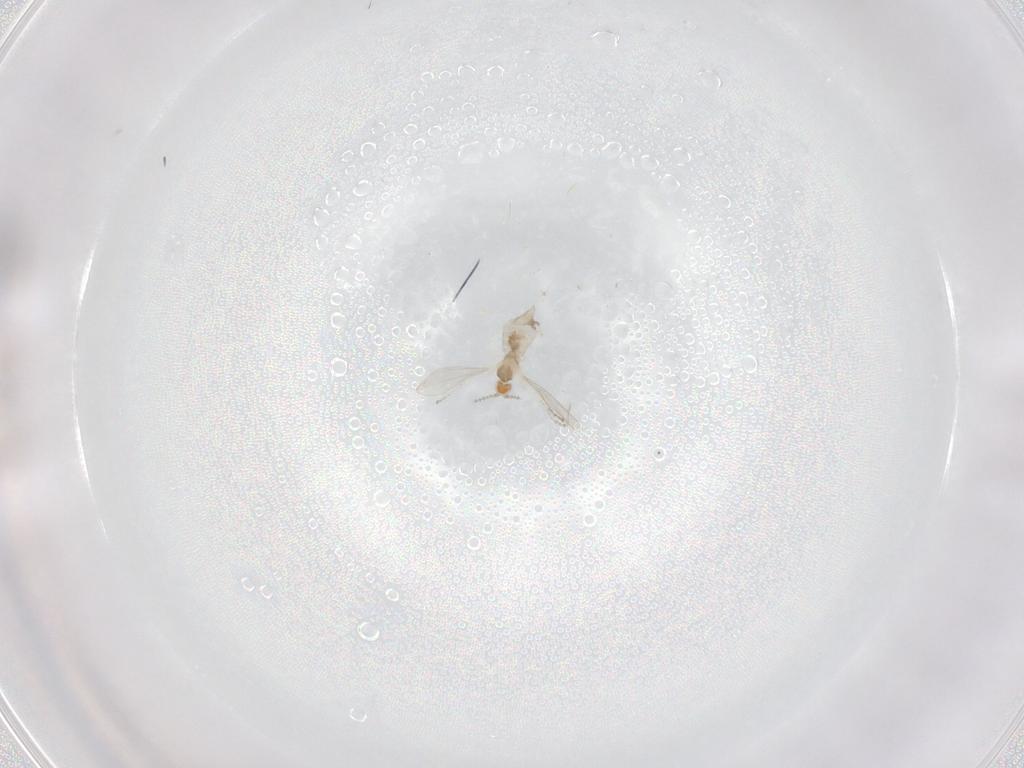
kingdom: Animalia
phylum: Arthropoda
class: Insecta
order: Diptera
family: Cecidomyiidae
